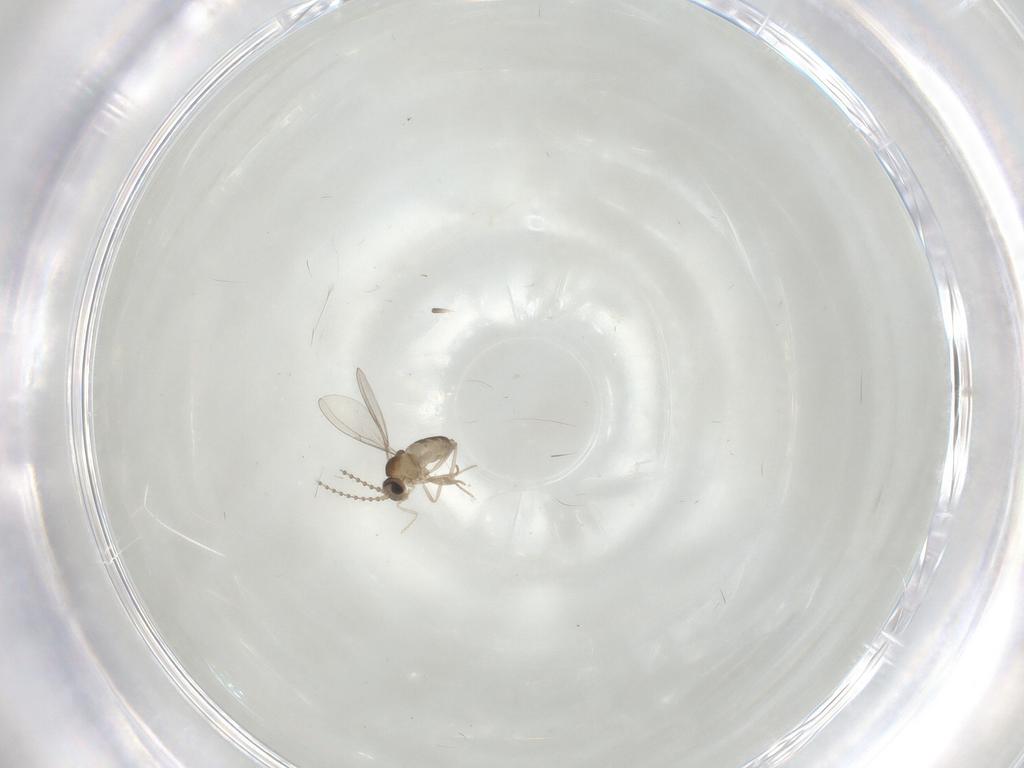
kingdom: Animalia
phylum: Arthropoda
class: Insecta
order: Diptera
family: Cecidomyiidae
